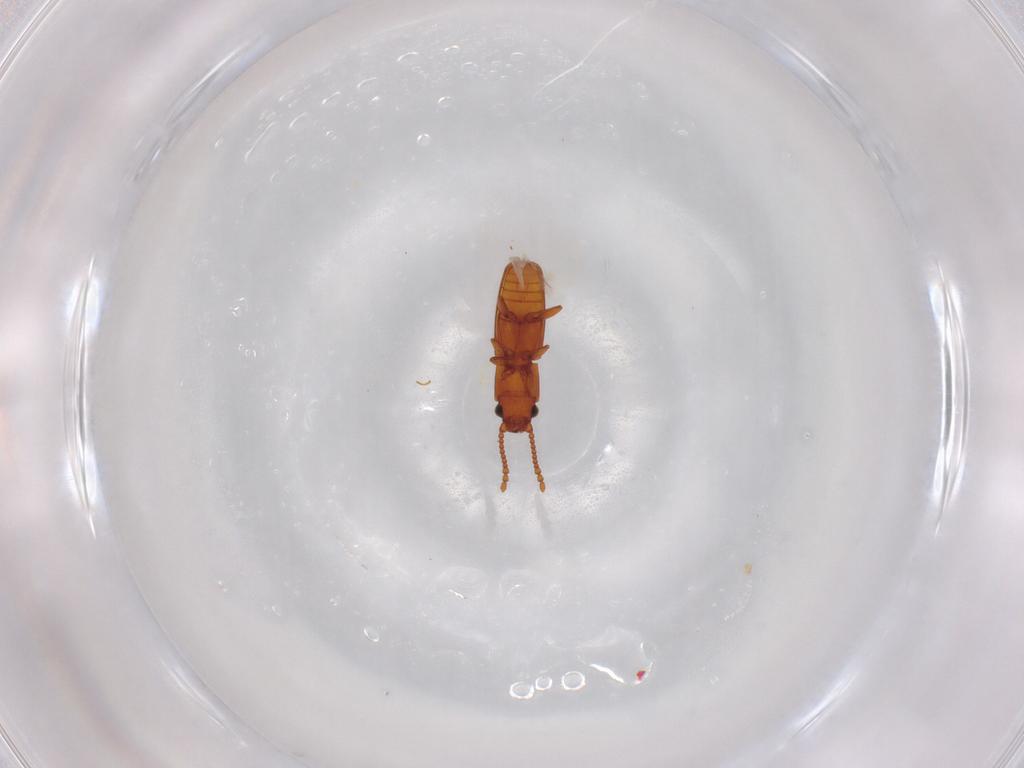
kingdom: Animalia
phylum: Arthropoda
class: Insecta
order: Coleoptera
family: Laemophloeidae
